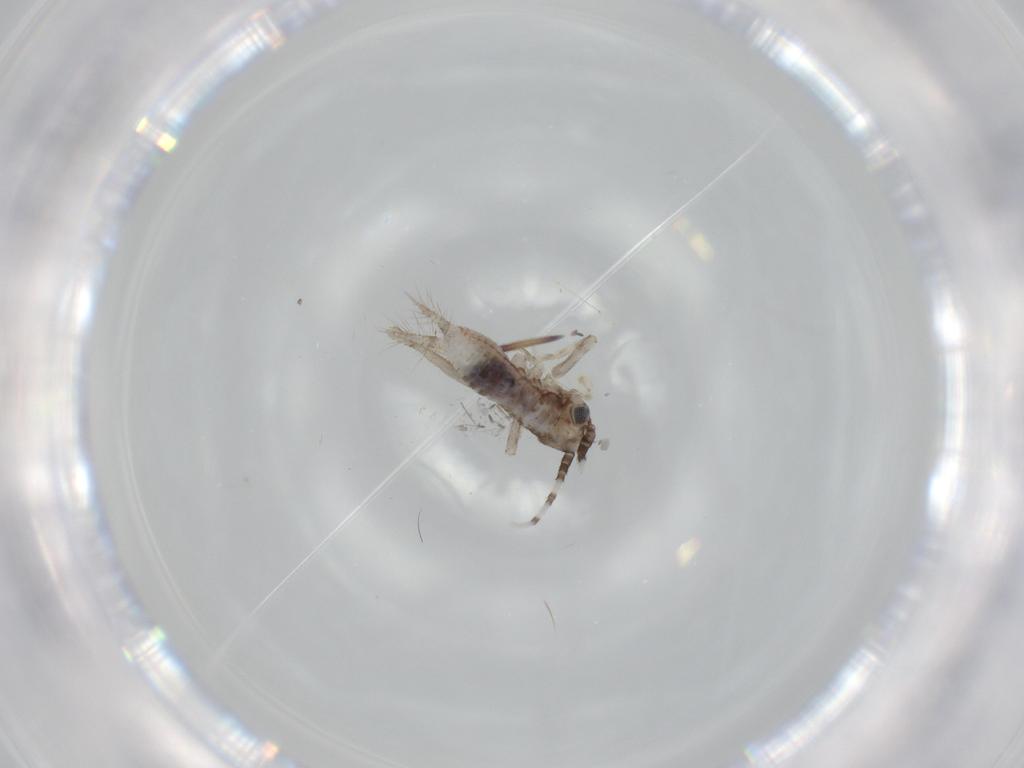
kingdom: Animalia
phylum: Arthropoda
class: Insecta
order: Orthoptera
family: Trigonidiidae
